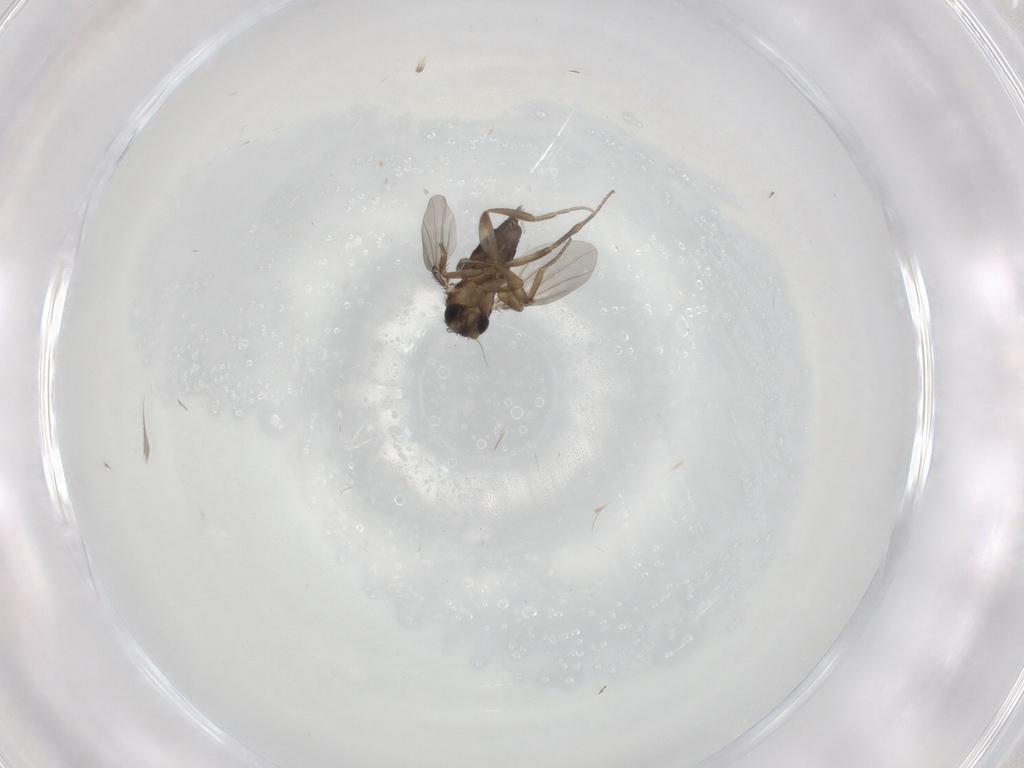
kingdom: Animalia
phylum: Arthropoda
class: Insecta
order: Diptera
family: Phoridae
